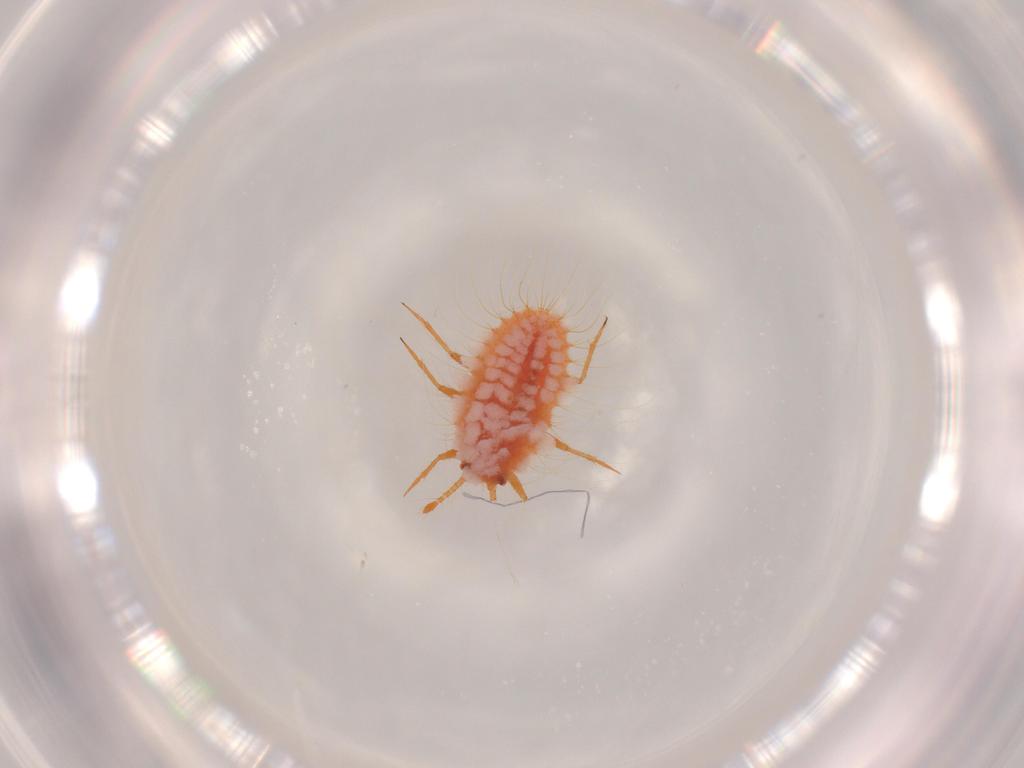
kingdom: Animalia
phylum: Arthropoda
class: Insecta
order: Hemiptera
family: Coccoidea_incertae_sedis
